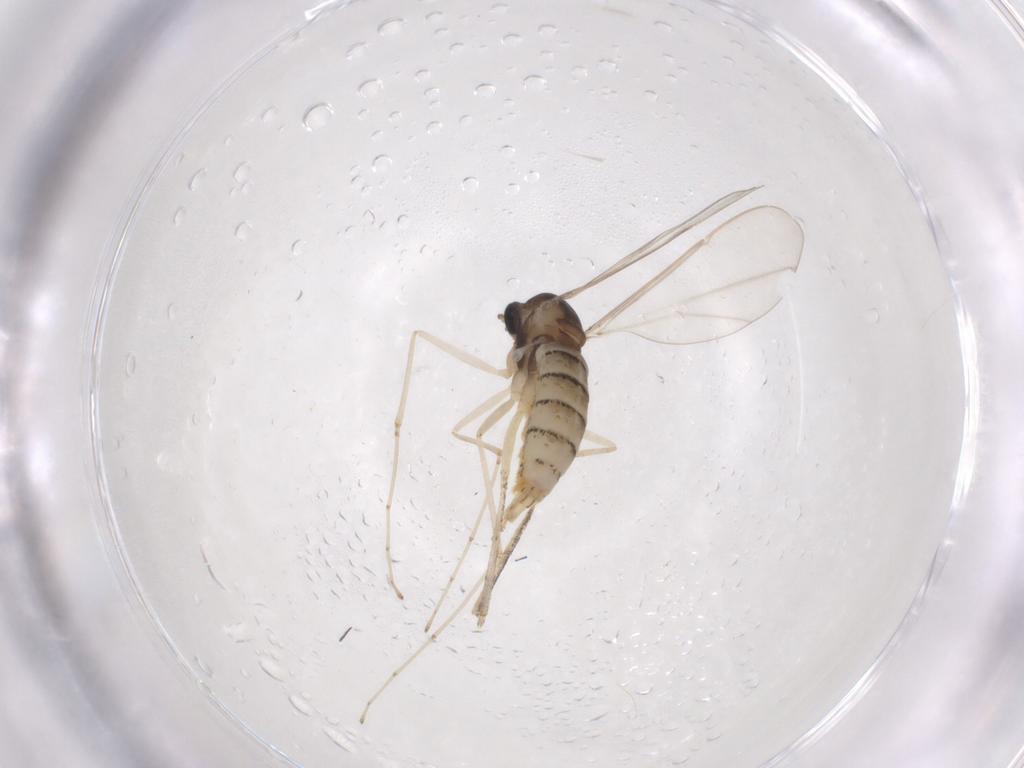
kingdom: Animalia
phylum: Arthropoda
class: Insecta
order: Diptera
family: Cecidomyiidae
